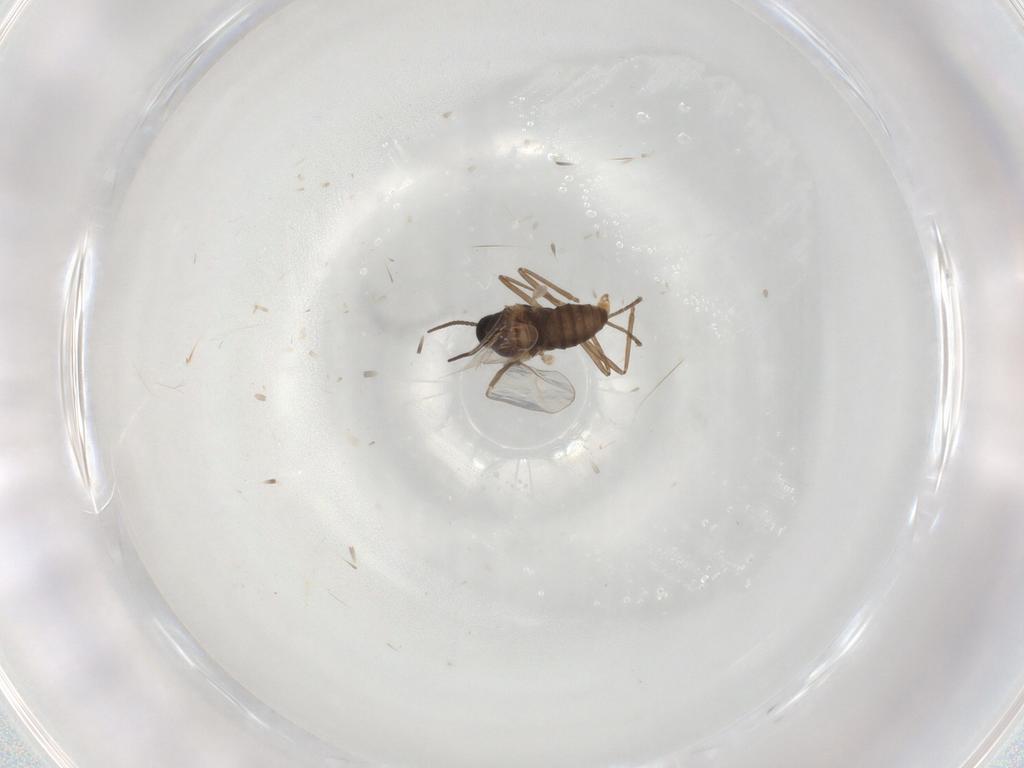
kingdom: Animalia
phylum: Arthropoda
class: Insecta
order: Diptera
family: Cecidomyiidae
